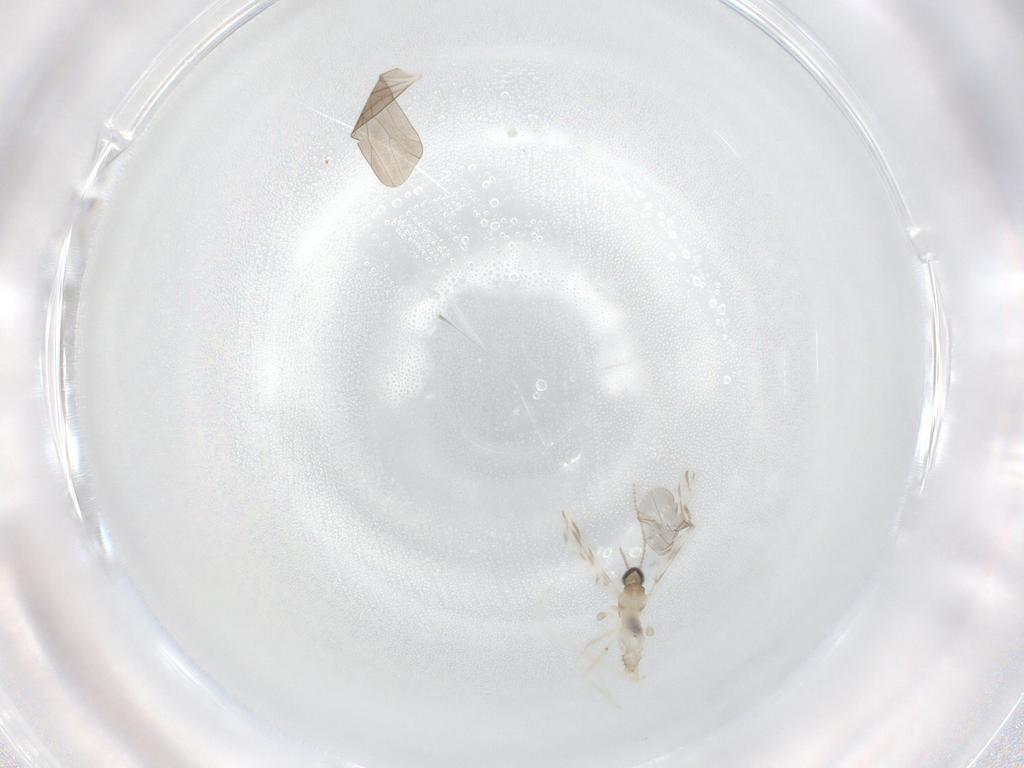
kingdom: Animalia
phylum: Arthropoda
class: Insecta
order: Diptera
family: Cecidomyiidae
